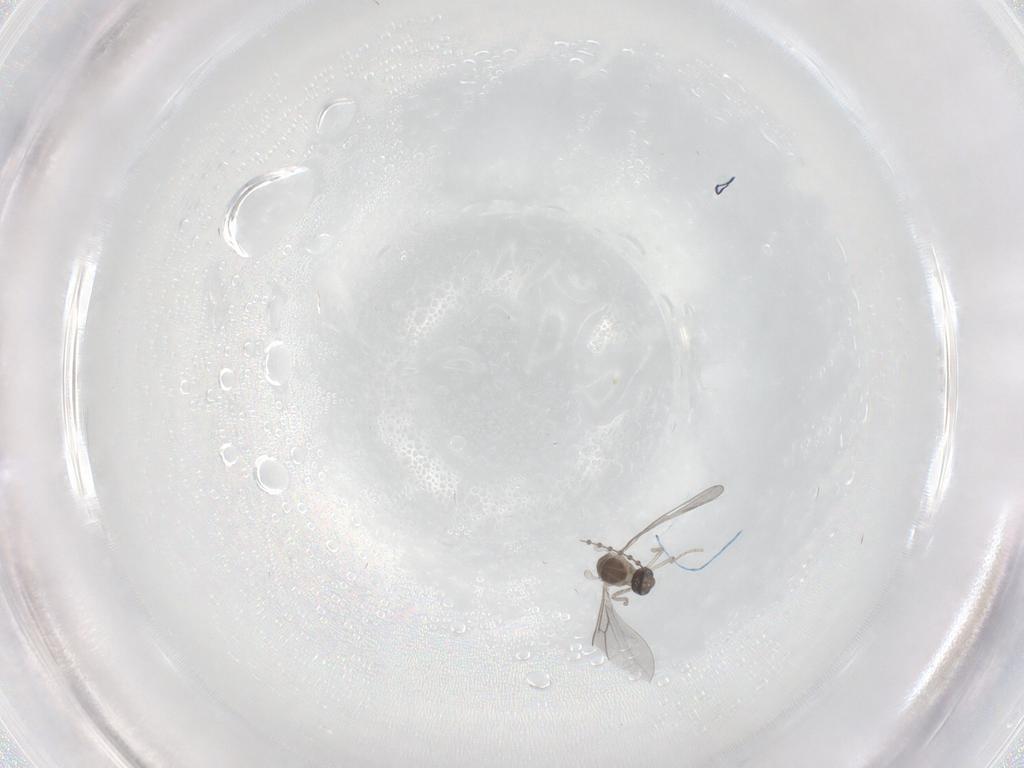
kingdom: Animalia
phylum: Arthropoda
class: Insecta
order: Diptera
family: Cecidomyiidae
